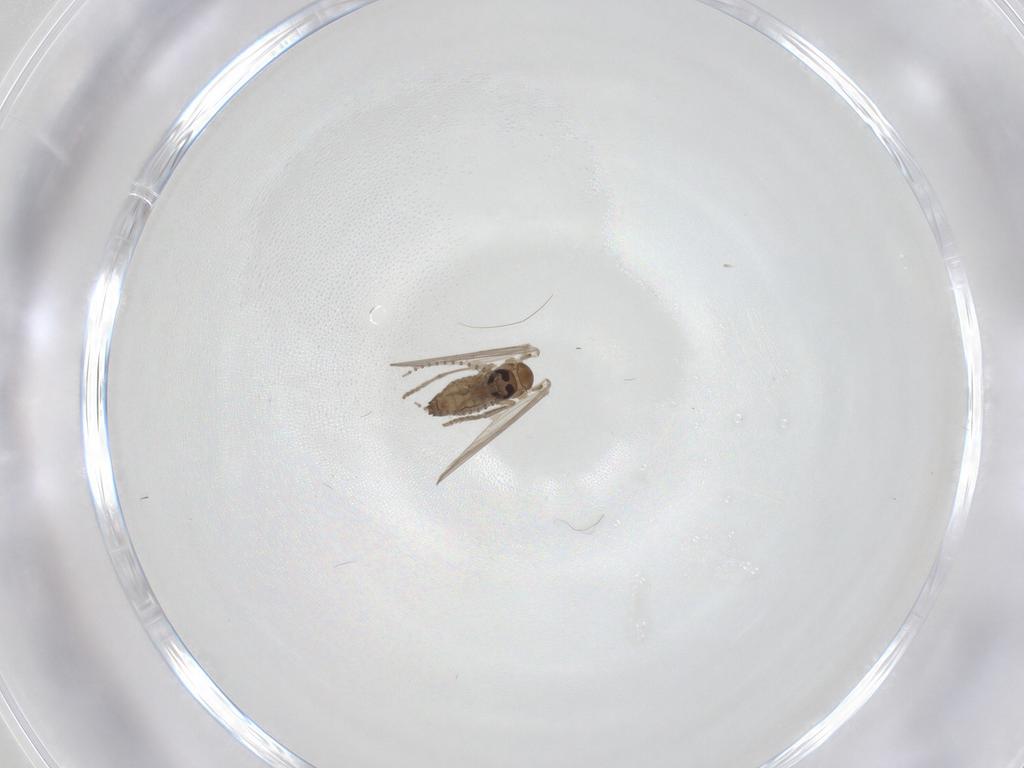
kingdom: Animalia
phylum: Arthropoda
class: Insecta
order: Diptera
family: Psychodidae
